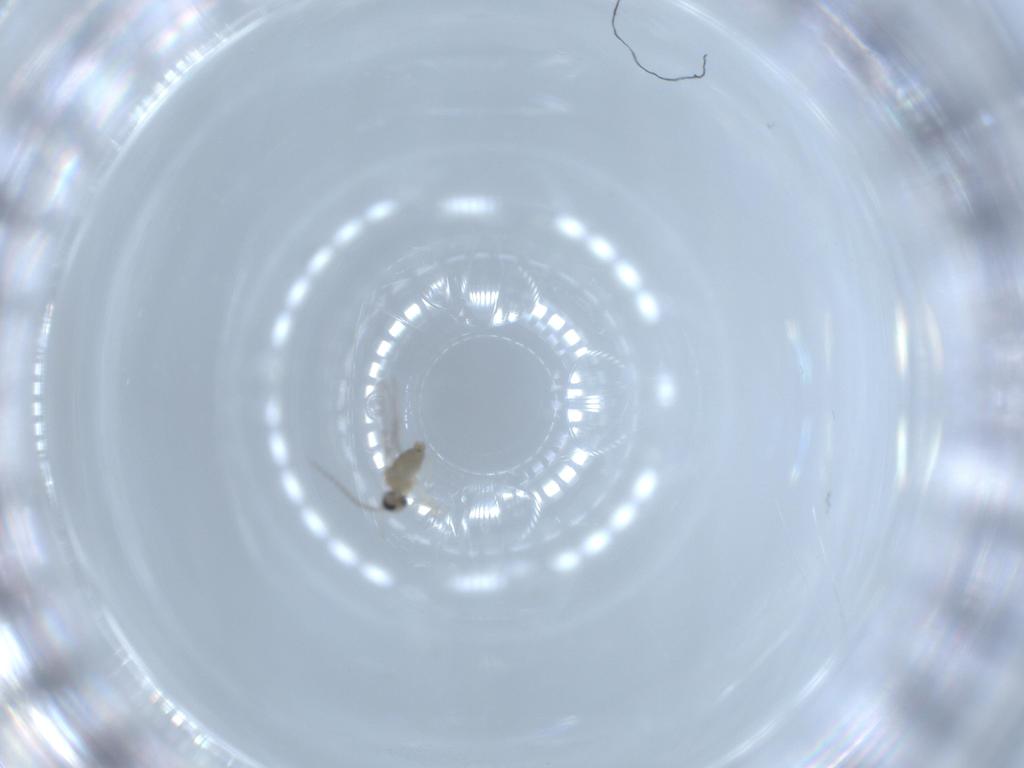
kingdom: Animalia
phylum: Arthropoda
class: Insecta
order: Diptera
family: Cecidomyiidae
